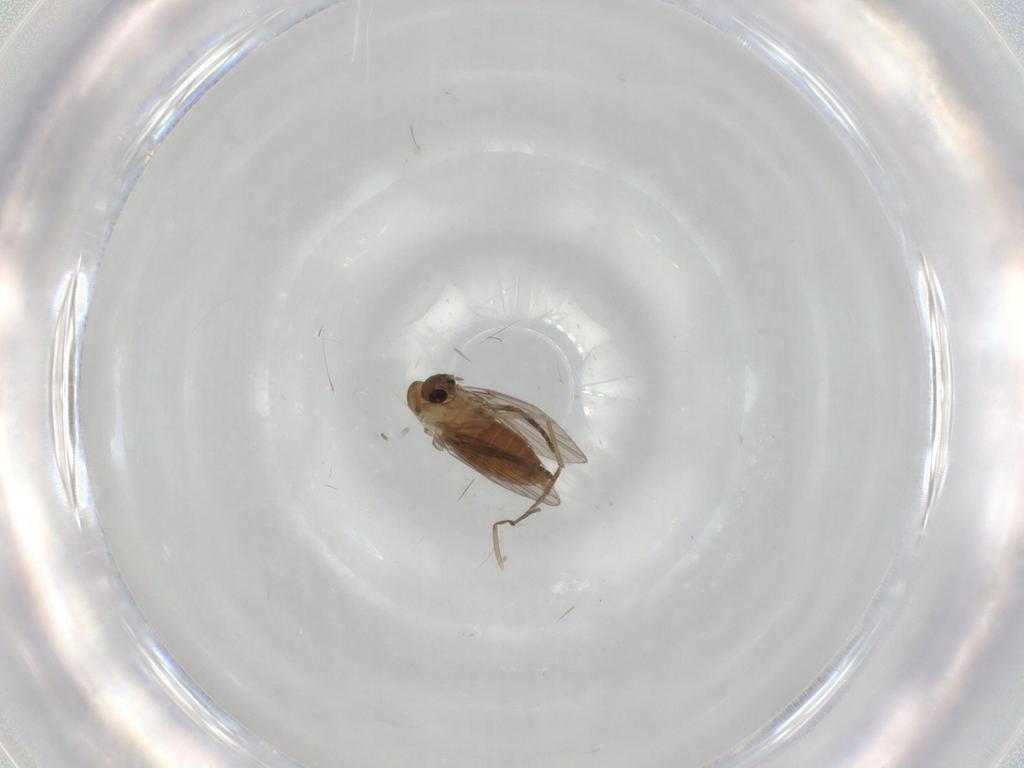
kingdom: Animalia
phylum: Arthropoda
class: Insecta
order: Diptera
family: Chironomidae
